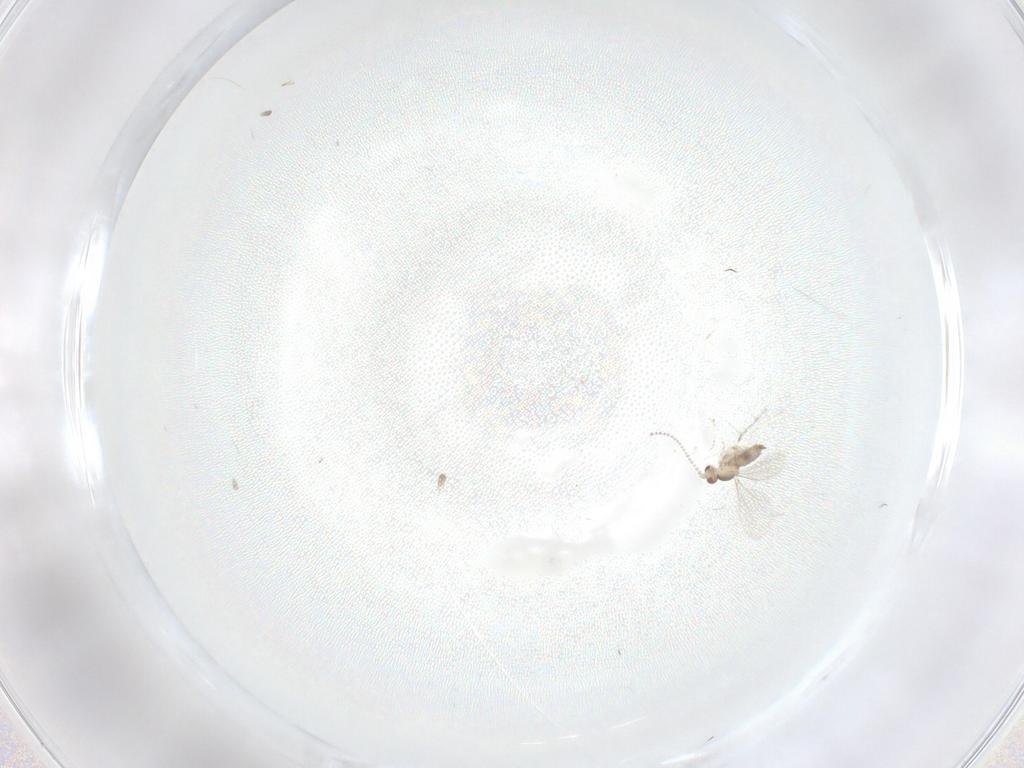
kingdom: Animalia
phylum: Arthropoda
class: Insecta
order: Diptera
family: Cecidomyiidae
